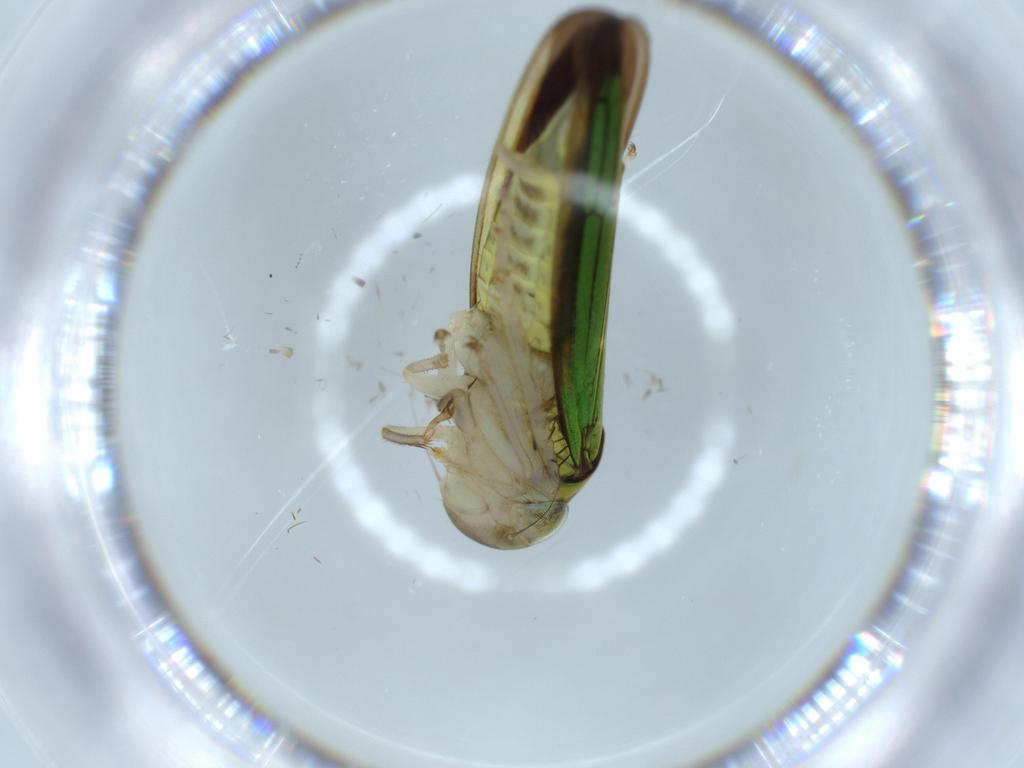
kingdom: Animalia
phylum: Arthropoda
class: Insecta
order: Hemiptera
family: Cicadellidae
